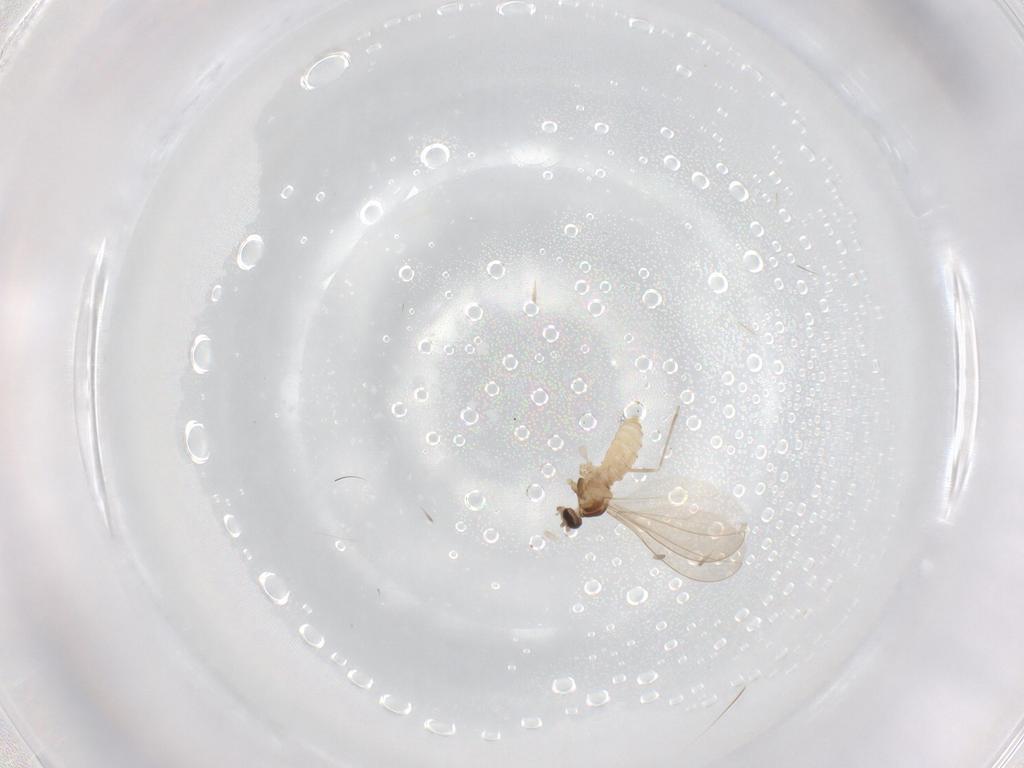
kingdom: Animalia
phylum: Arthropoda
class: Insecta
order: Diptera
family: Cecidomyiidae
